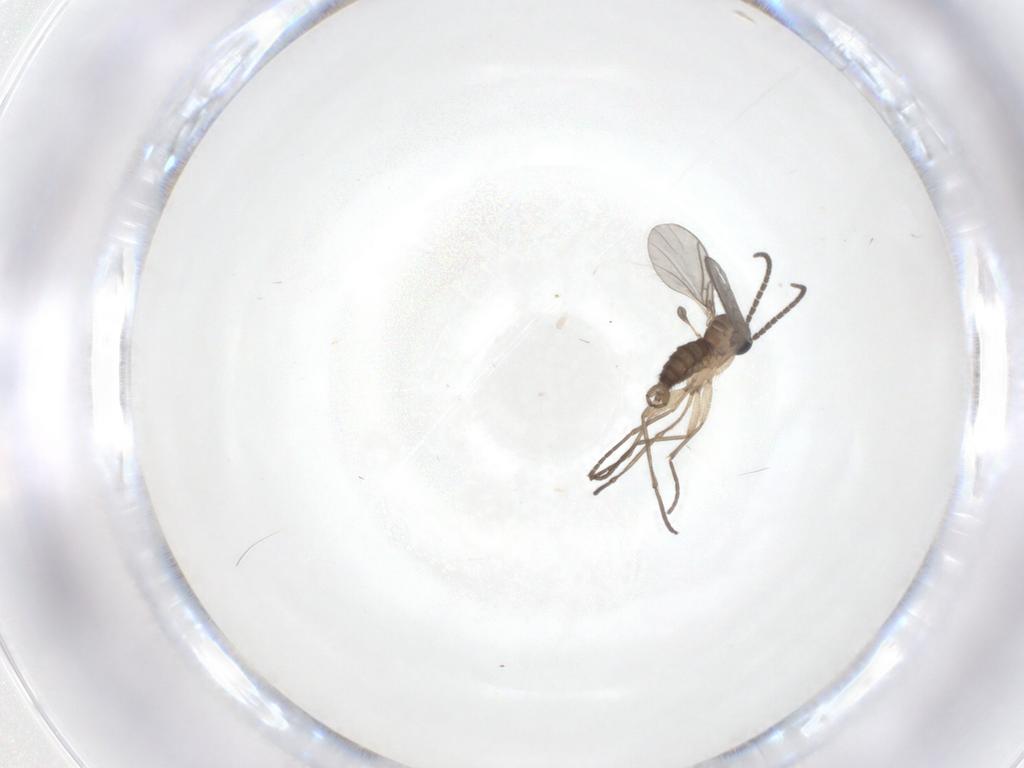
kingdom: Animalia
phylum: Arthropoda
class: Insecta
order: Diptera
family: Sciaridae
